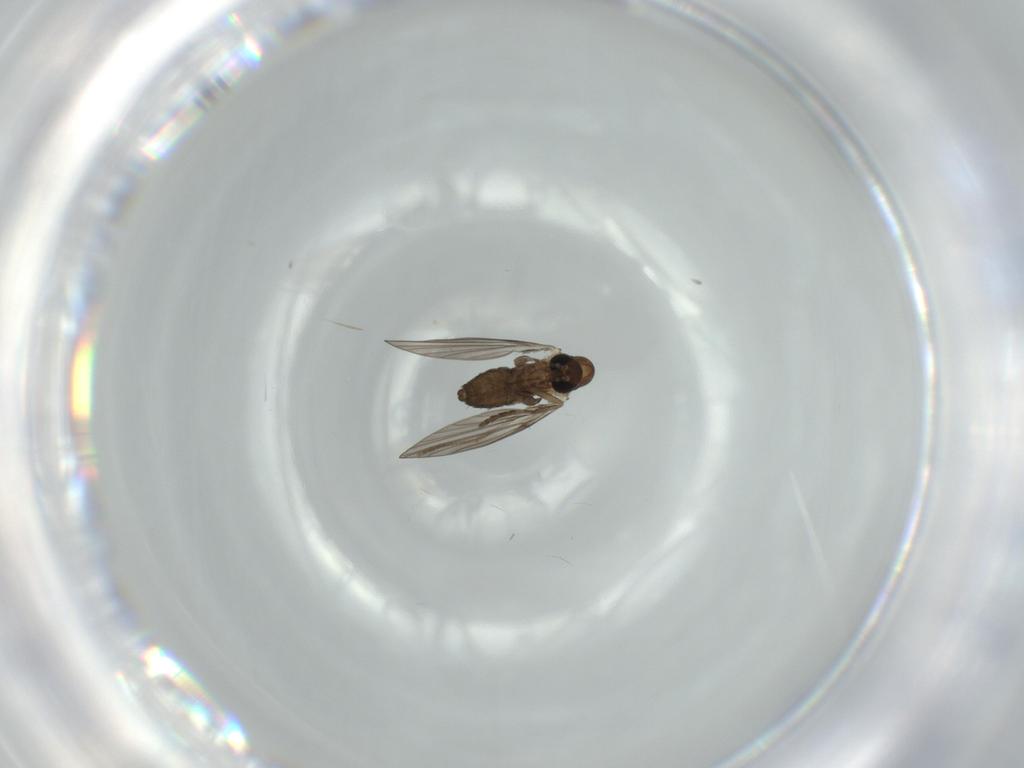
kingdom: Animalia
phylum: Arthropoda
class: Insecta
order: Diptera
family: Psychodidae
